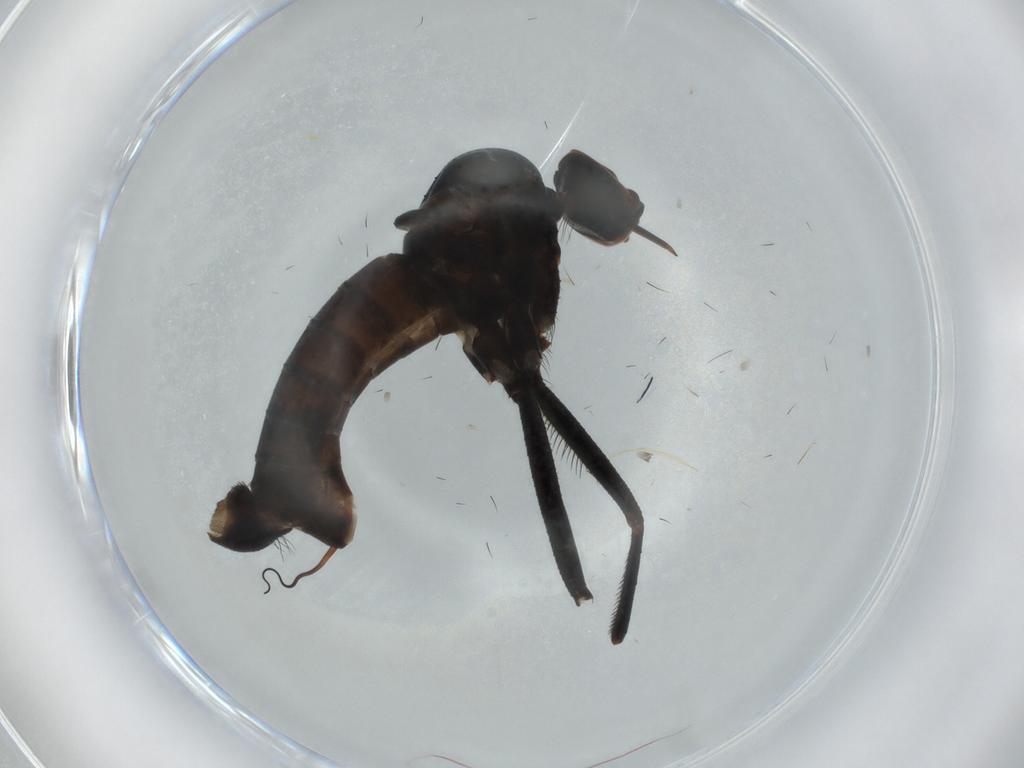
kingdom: Animalia
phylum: Arthropoda
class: Insecta
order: Diptera
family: Empididae
